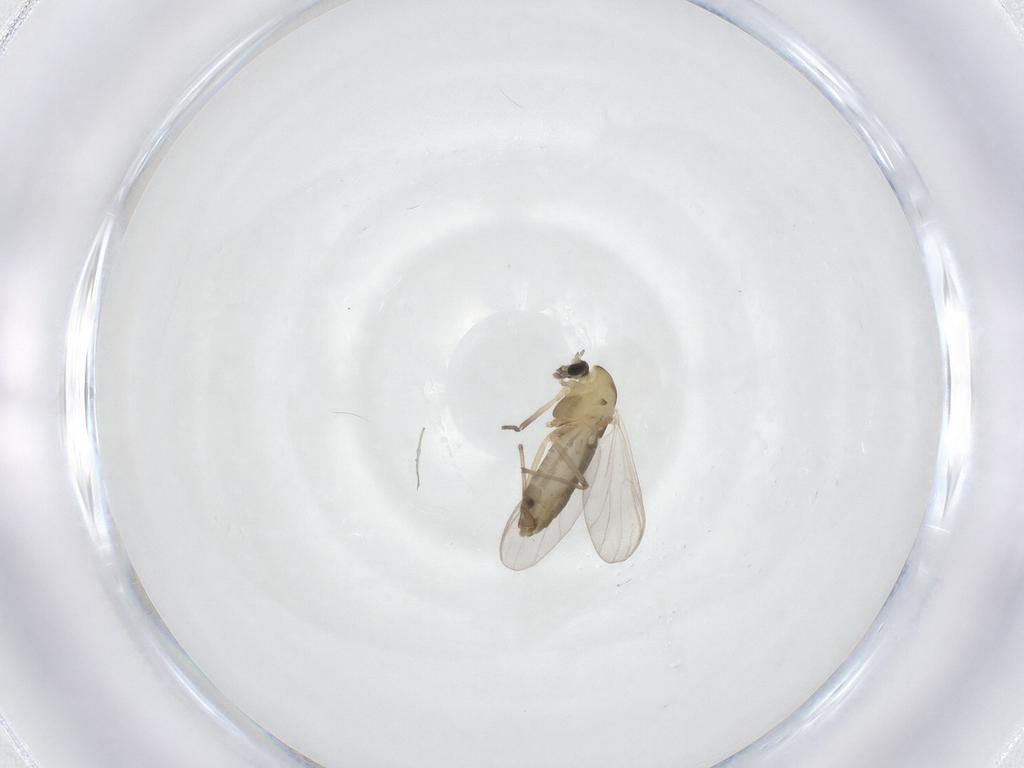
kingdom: Animalia
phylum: Arthropoda
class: Insecta
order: Diptera
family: Chironomidae
